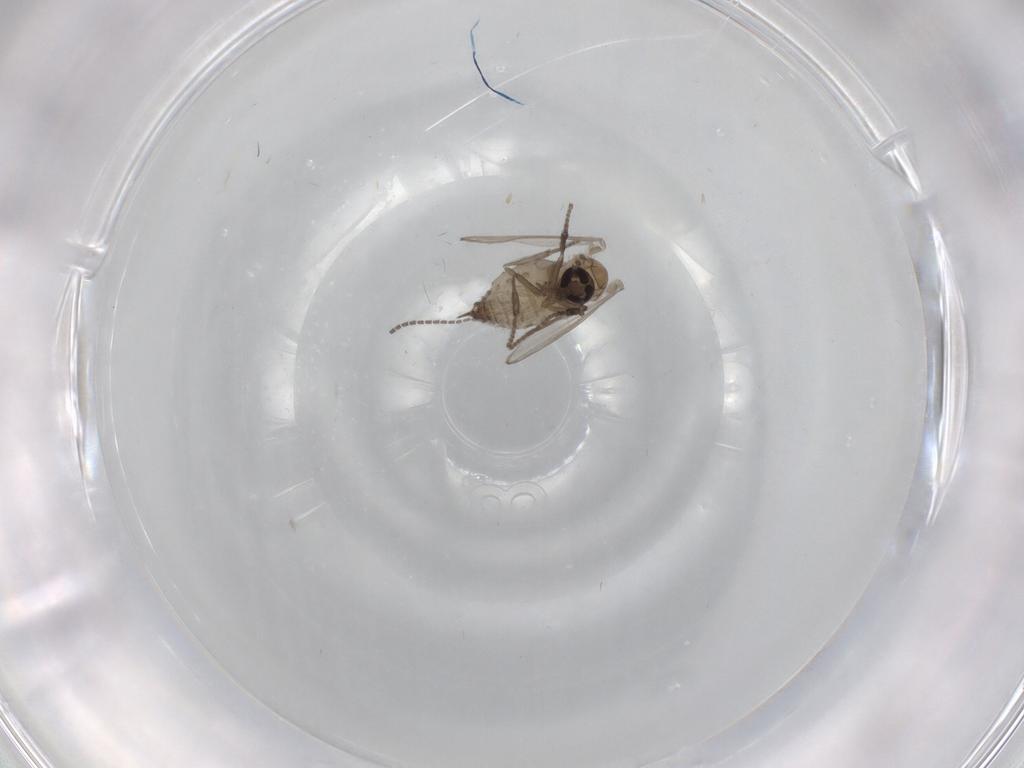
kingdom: Animalia
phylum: Arthropoda
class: Insecta
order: Diptera
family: Psychodidae
